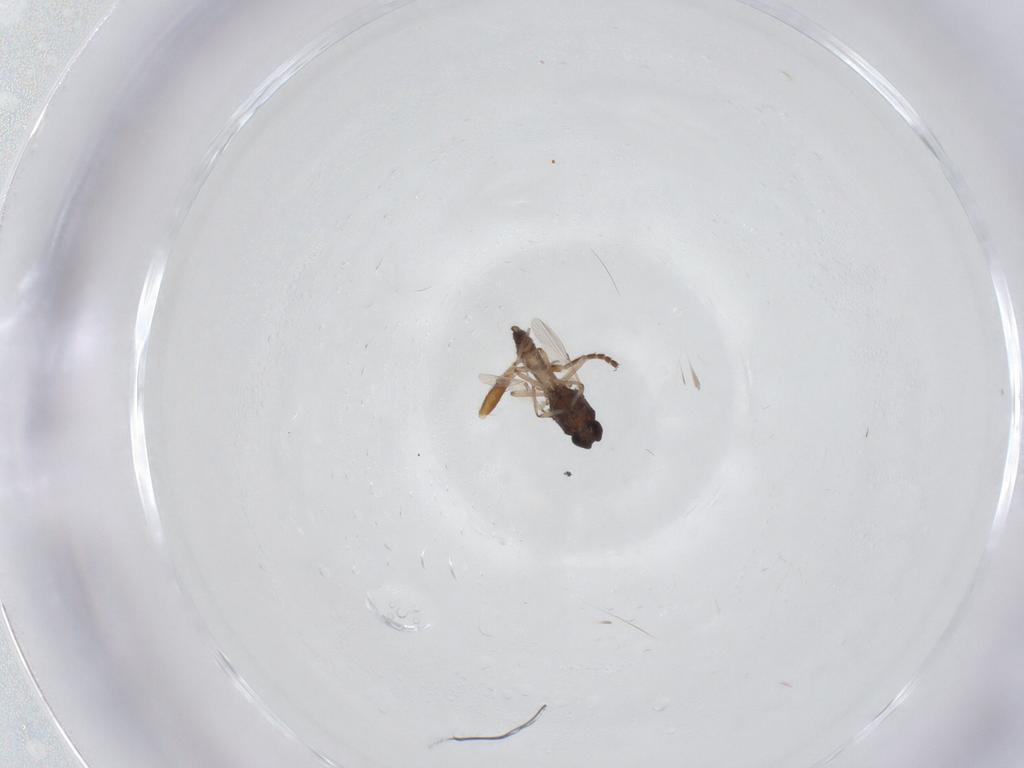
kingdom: Animalia
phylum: Arthropoda
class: Insecta
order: Diptera
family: Ceratopogonidae
